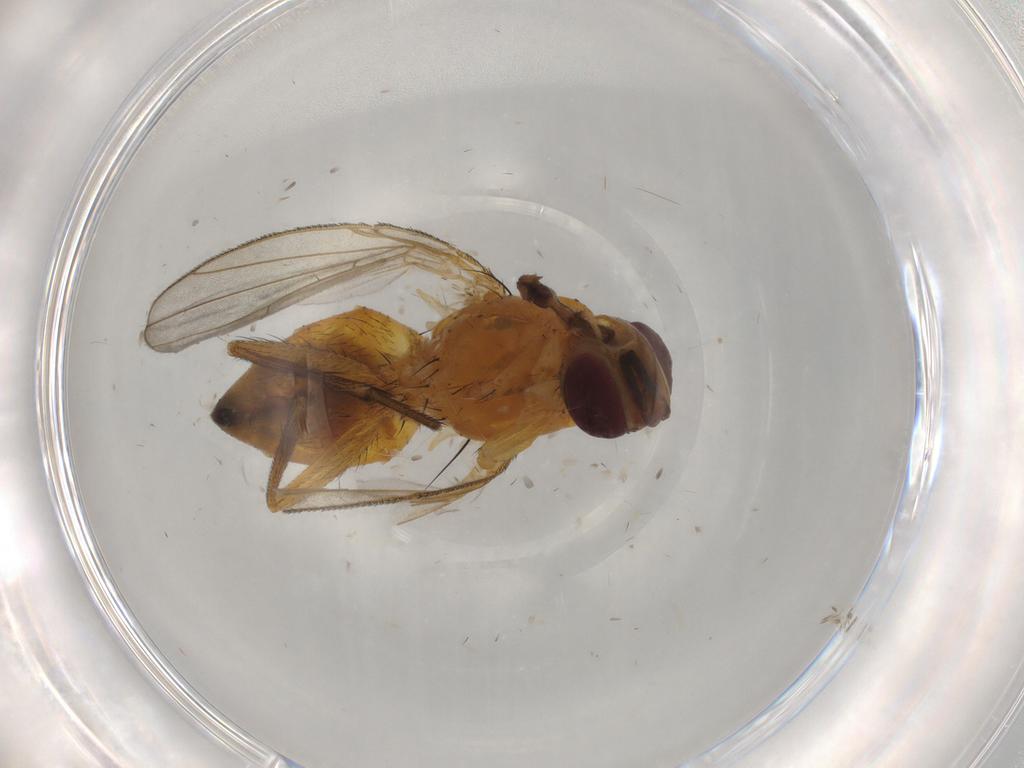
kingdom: Animalia
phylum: Arthropoda
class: Insecta
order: Diptera
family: Muscidae
